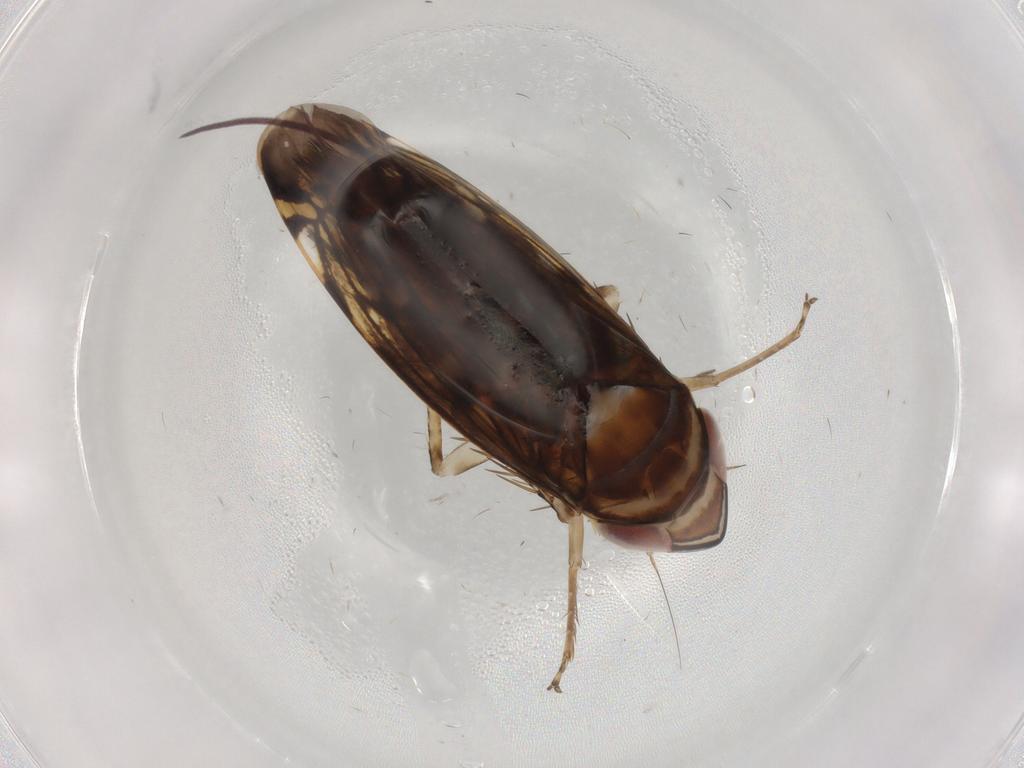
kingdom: Animalia
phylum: Arthropoda
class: Insecta
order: Hemiptera
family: Cicadellidae
